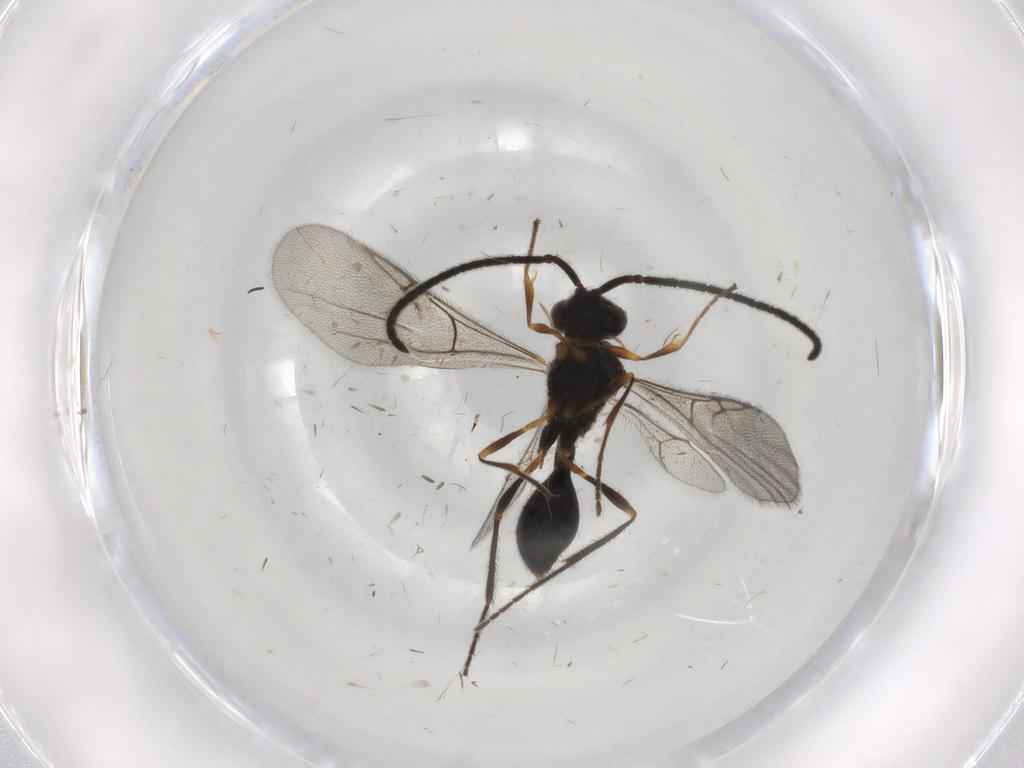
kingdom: Animalia
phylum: Arthropoda
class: Insecta
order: Hymenoptera
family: Diapriidae
